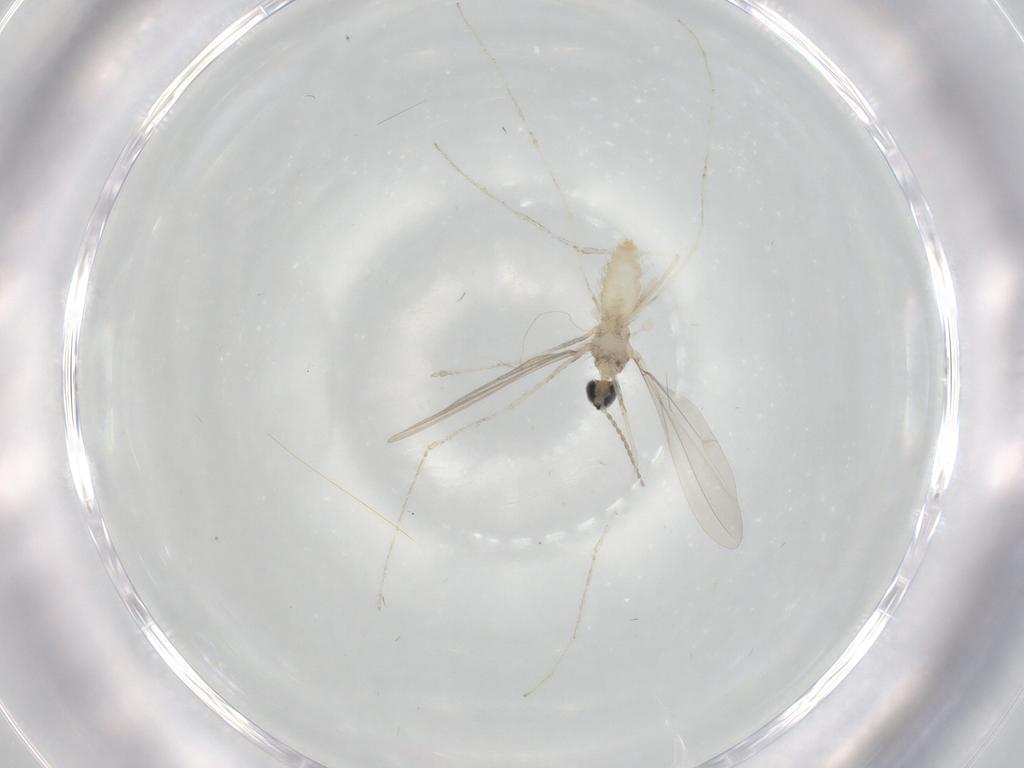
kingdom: Animalia
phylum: Arthropoda
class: Insecta
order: Diptera
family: Cecidomyiidae
